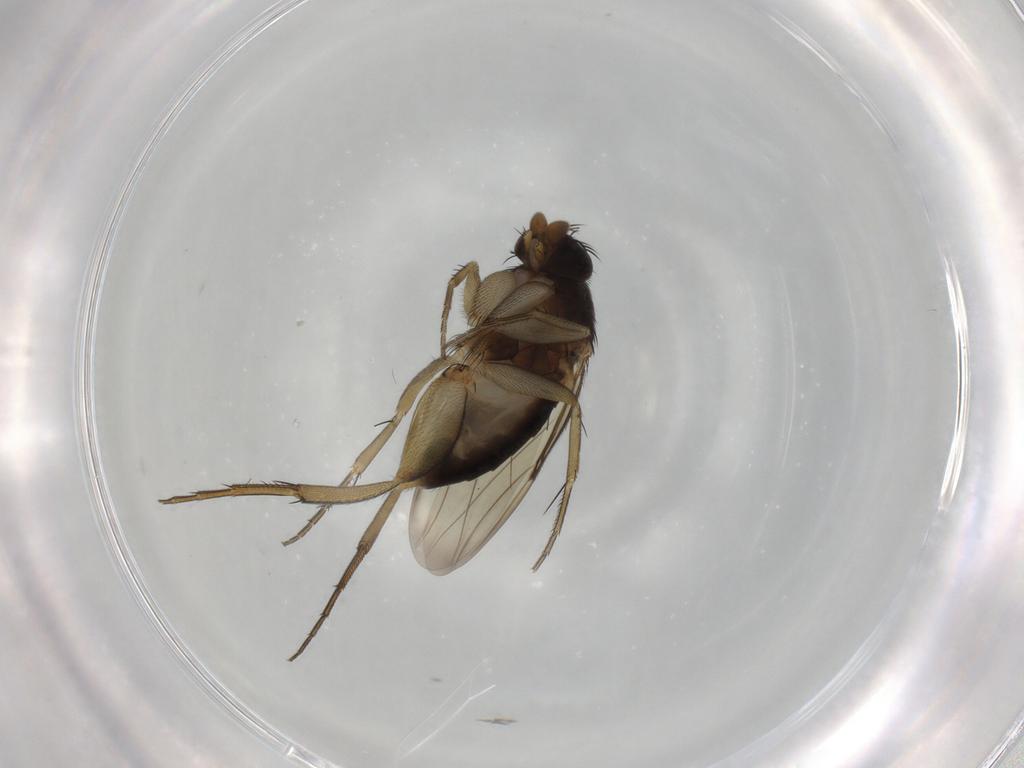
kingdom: Animalia
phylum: Arthropoda
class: Insecta
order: Diptera
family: Phoridae
